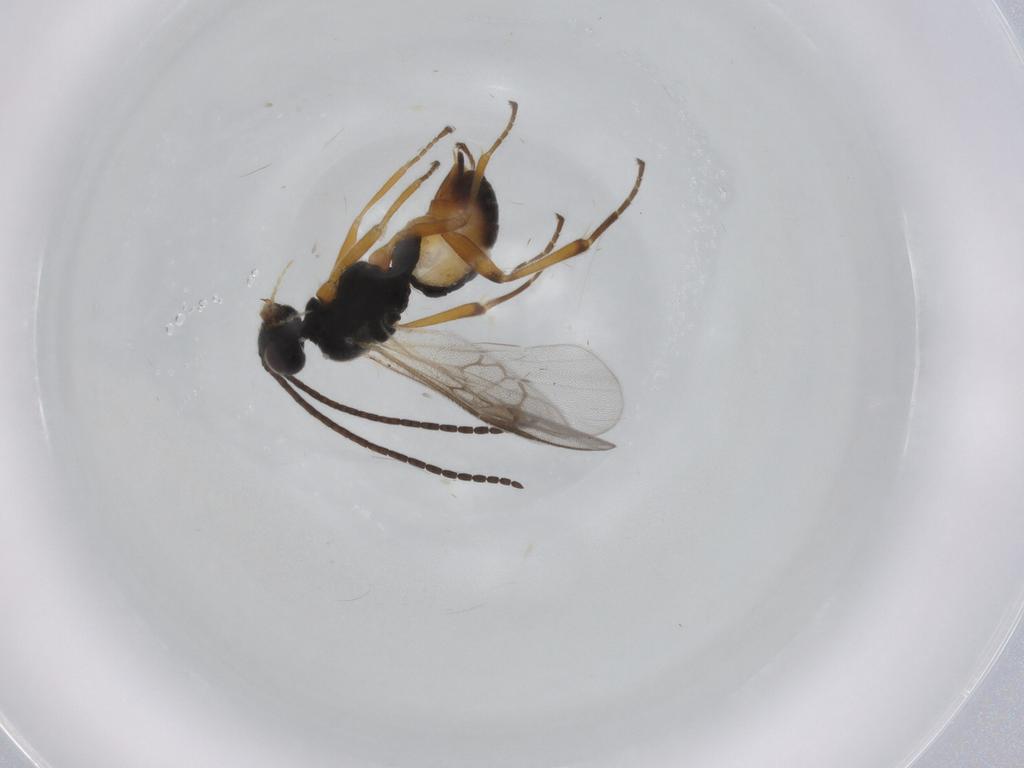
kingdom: Animalia
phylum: Arthropoda
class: Insecta
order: Hymenoptera
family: Braconidae
